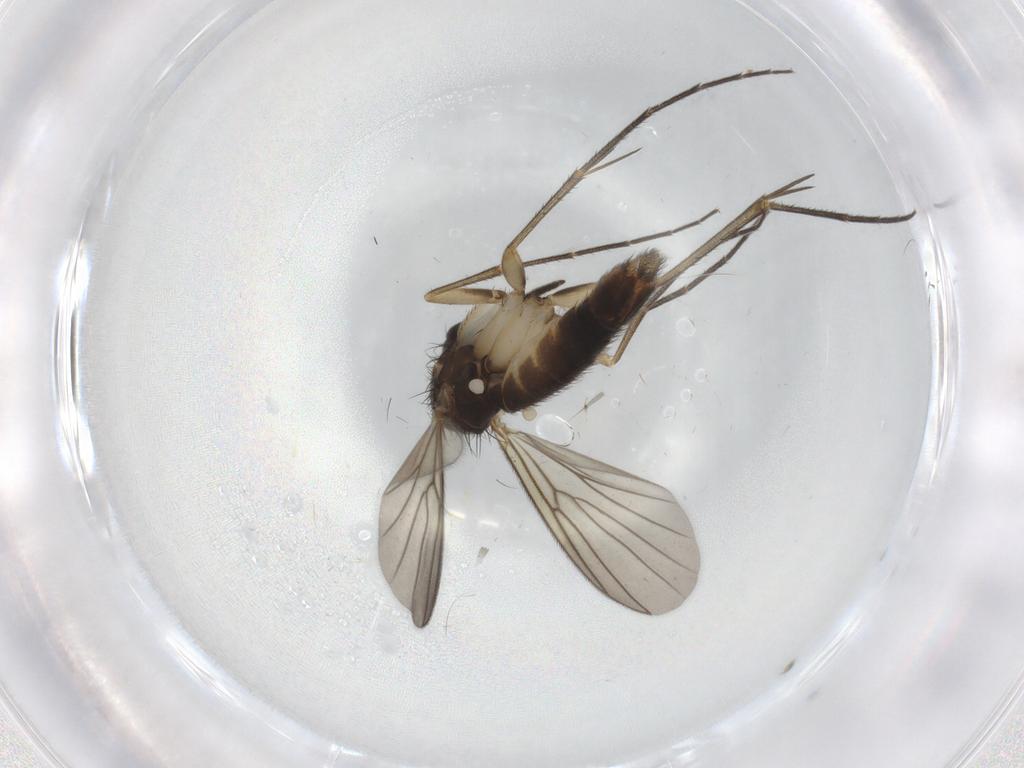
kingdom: Animalia
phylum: Arthropoda
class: Insecta
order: Diptera
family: Mycetophilidae
